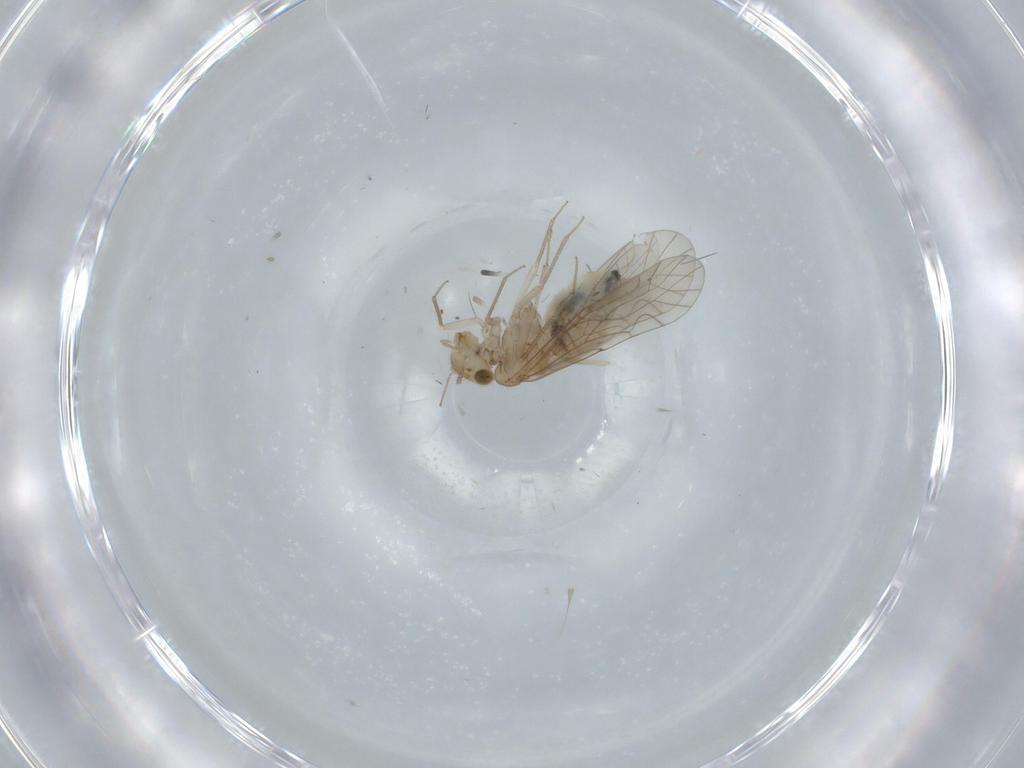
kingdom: Animalia
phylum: Arthropoda
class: Insecta
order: Psocodea
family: Lachesillidae
